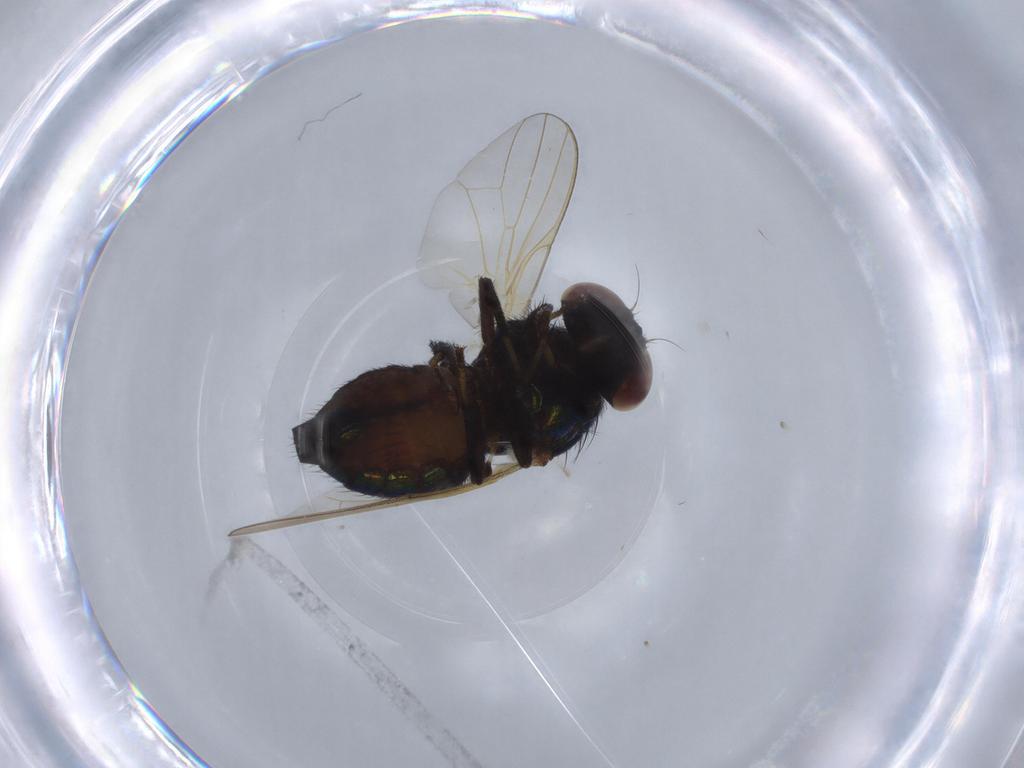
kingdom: Animalia
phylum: Arthropoda
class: Insecta
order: Diptera
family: Ephydridae
